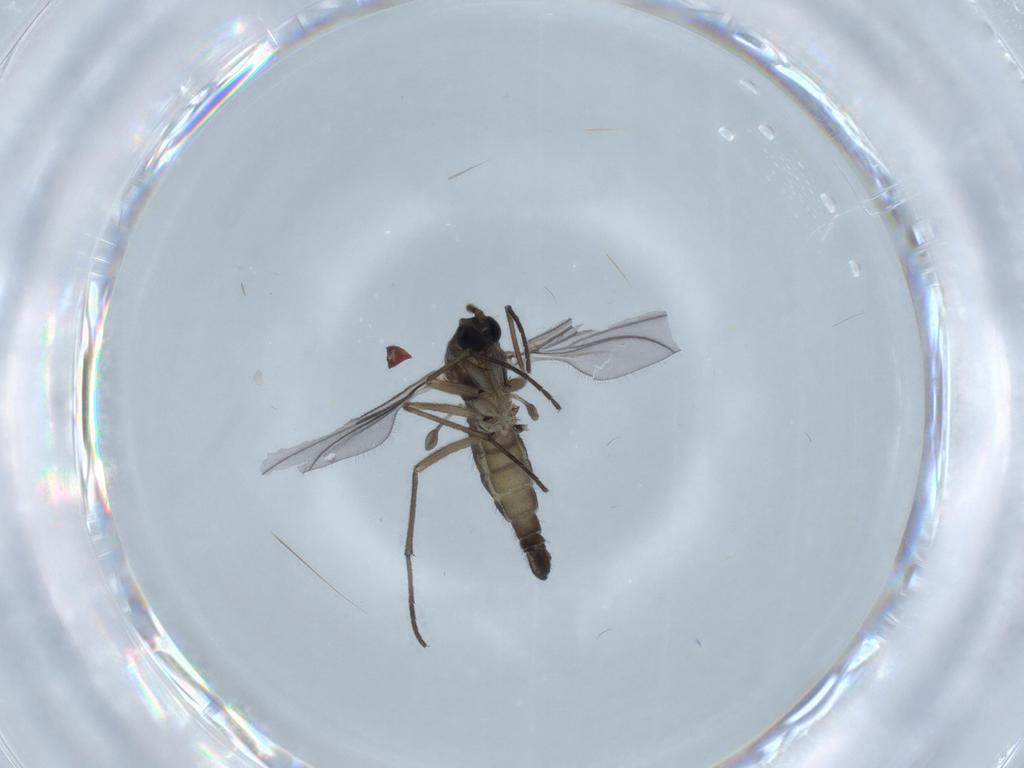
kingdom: Animalia
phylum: Arthropoda
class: Insecta
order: Diptera
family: Sciaridae
